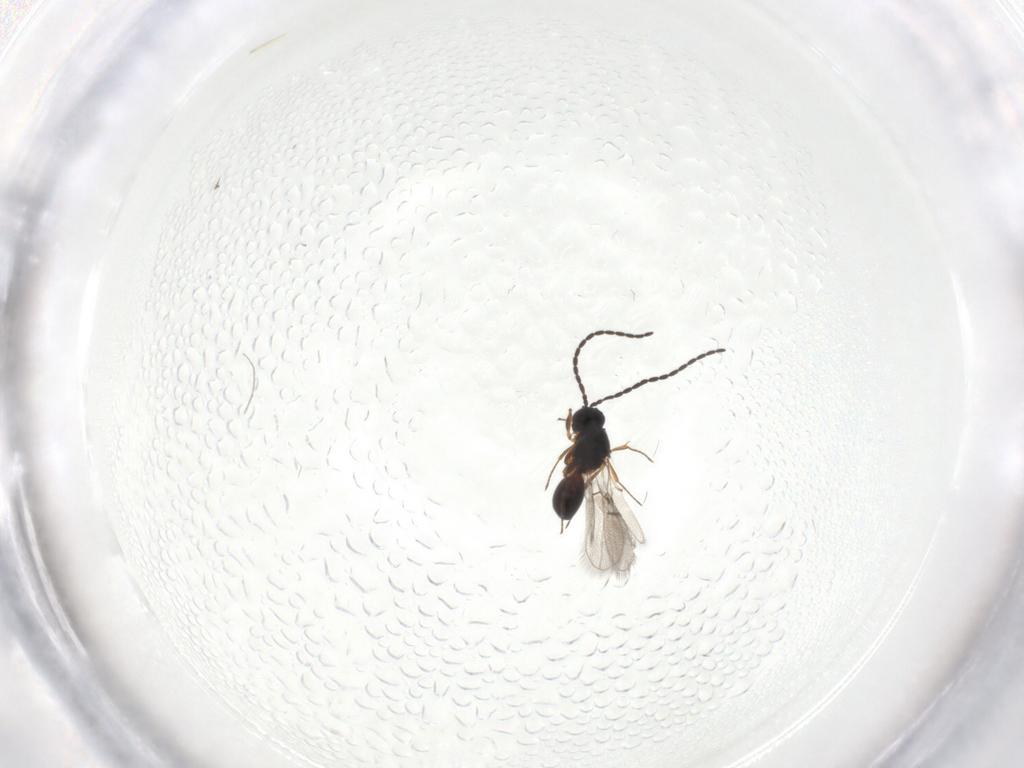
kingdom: Animalia
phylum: Arthropoda
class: Insecta
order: Hymenoptera
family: Figitidae
